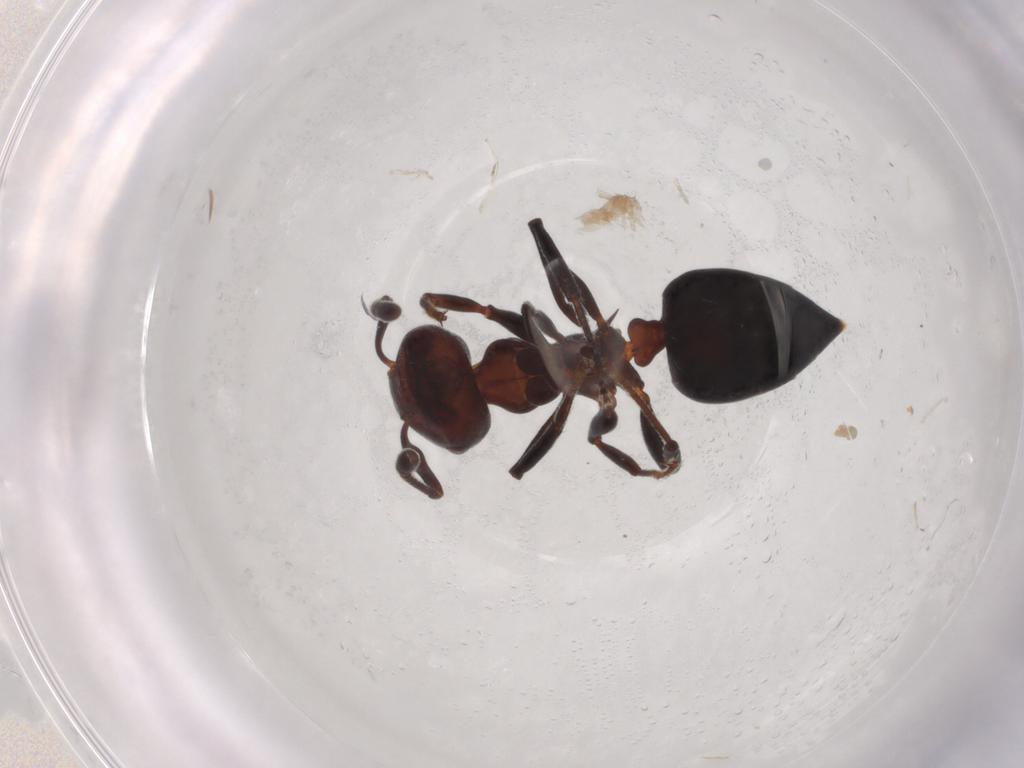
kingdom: Animalia
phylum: Arthropoda
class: Insecta
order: Hymenoptera
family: Formicidae
